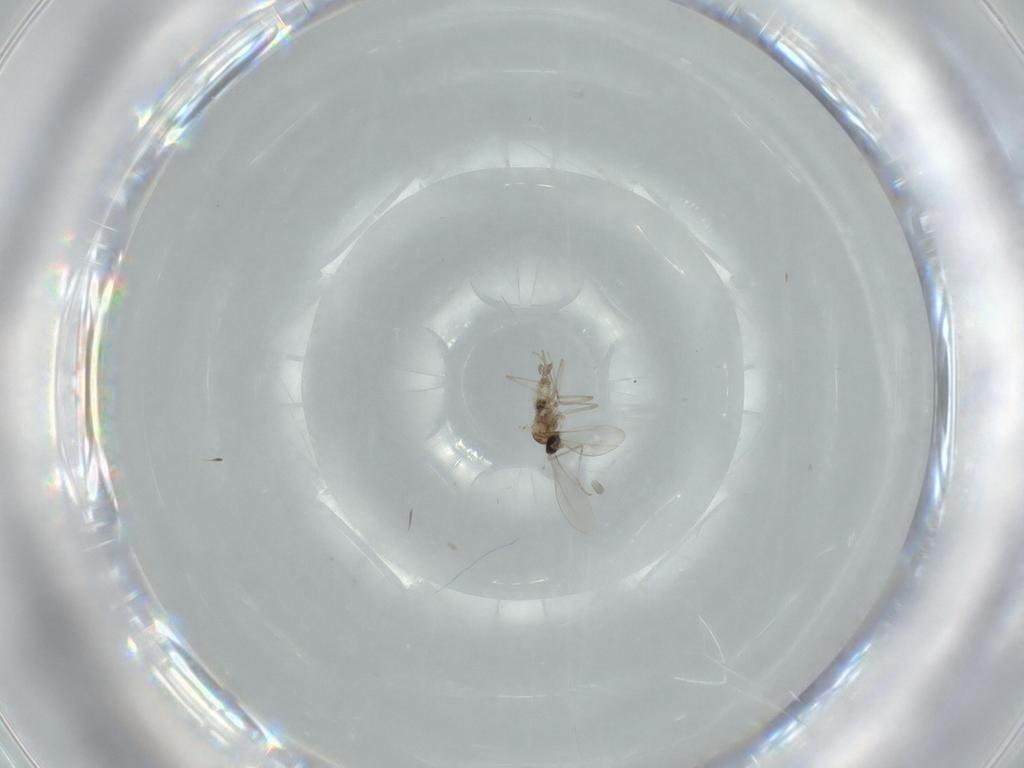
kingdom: Animalia
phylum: Arthropoda
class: Insecta
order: Diptera
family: Cecidomyiidae
